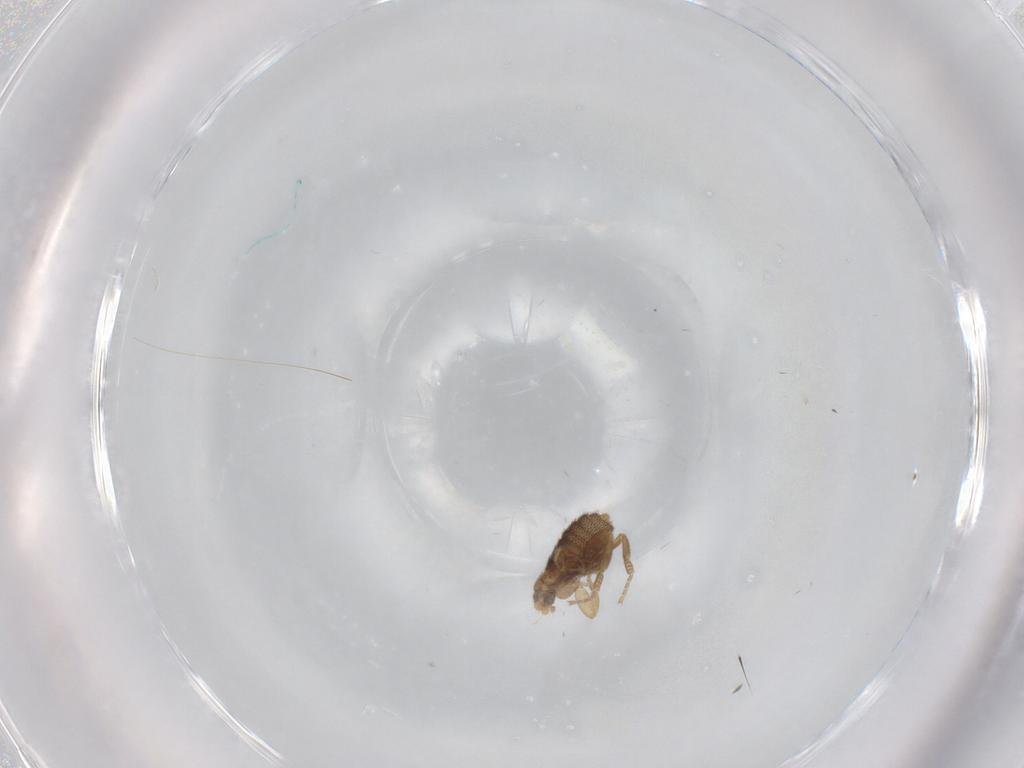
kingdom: Animalia
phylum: Arthropoda
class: Insecta
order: Diptera
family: Phoridae
